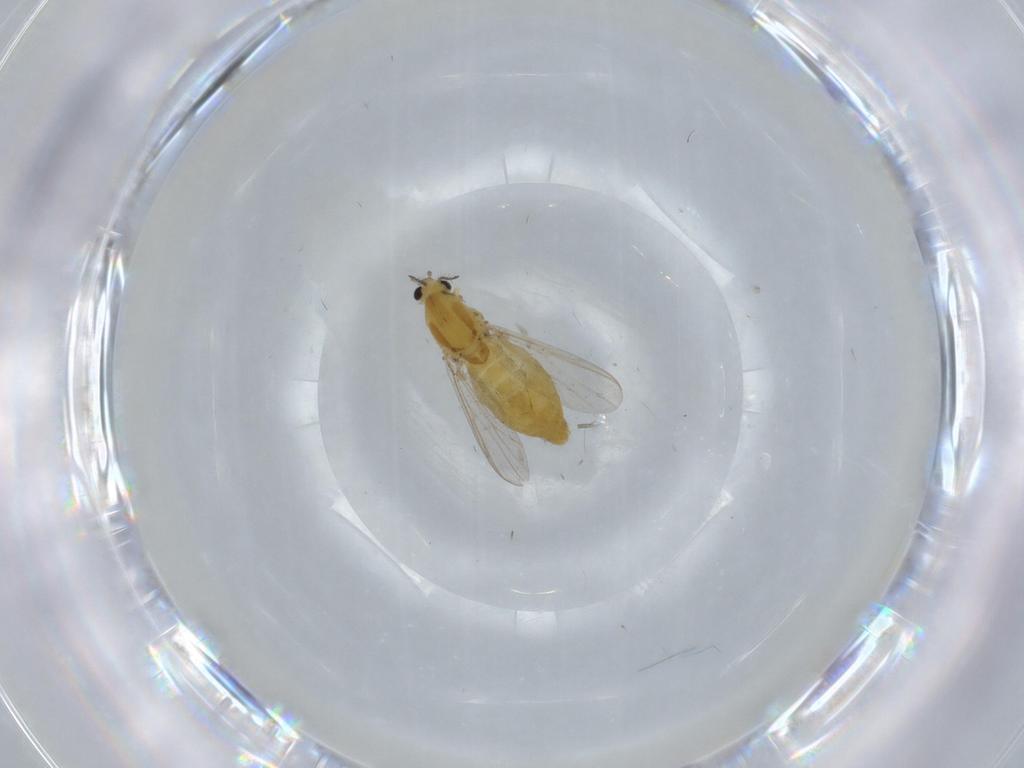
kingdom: Animalia
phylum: Arthropoda
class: Insecta
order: Diptera
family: Chironomidae
